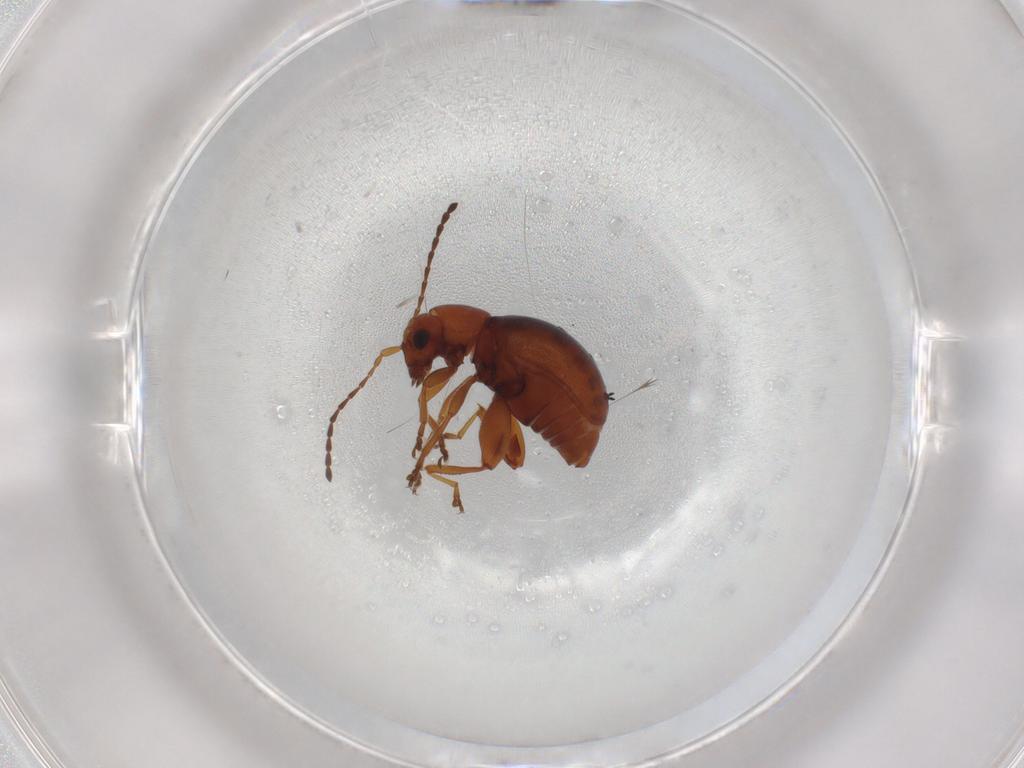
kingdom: Animalia
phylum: Arthropoda
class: Insecta
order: Coleoptera
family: Chrysomelidae
